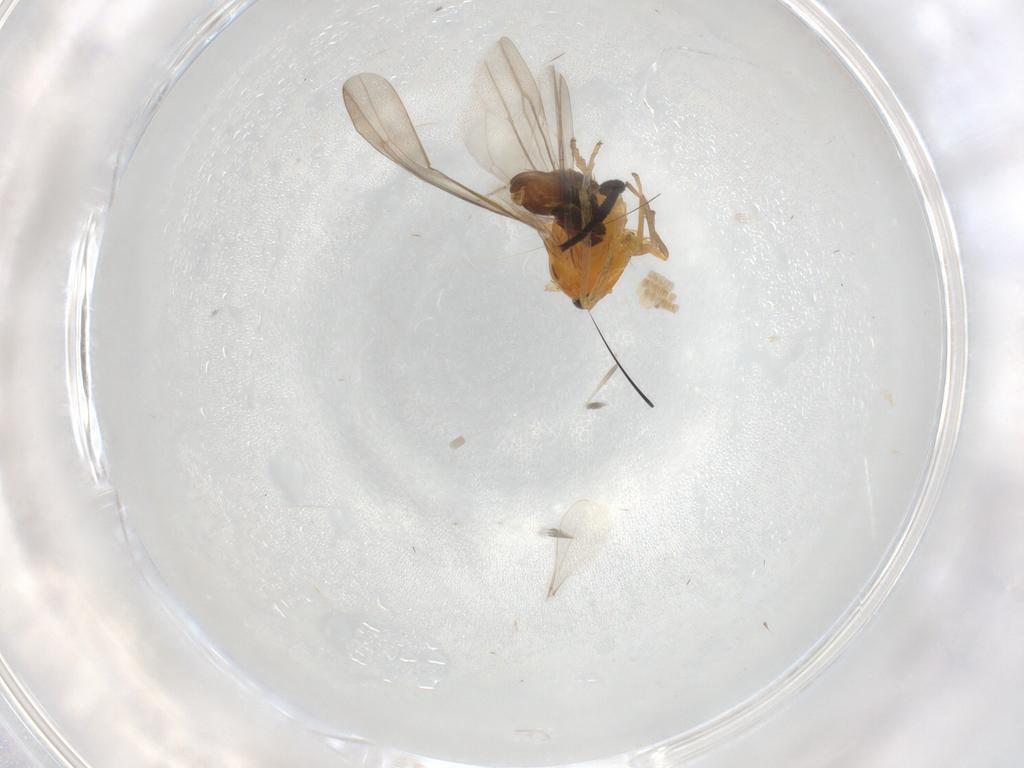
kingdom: Animalia
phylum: Arthropoda
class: Insecta
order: Hemiptera
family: Cicadellidae
